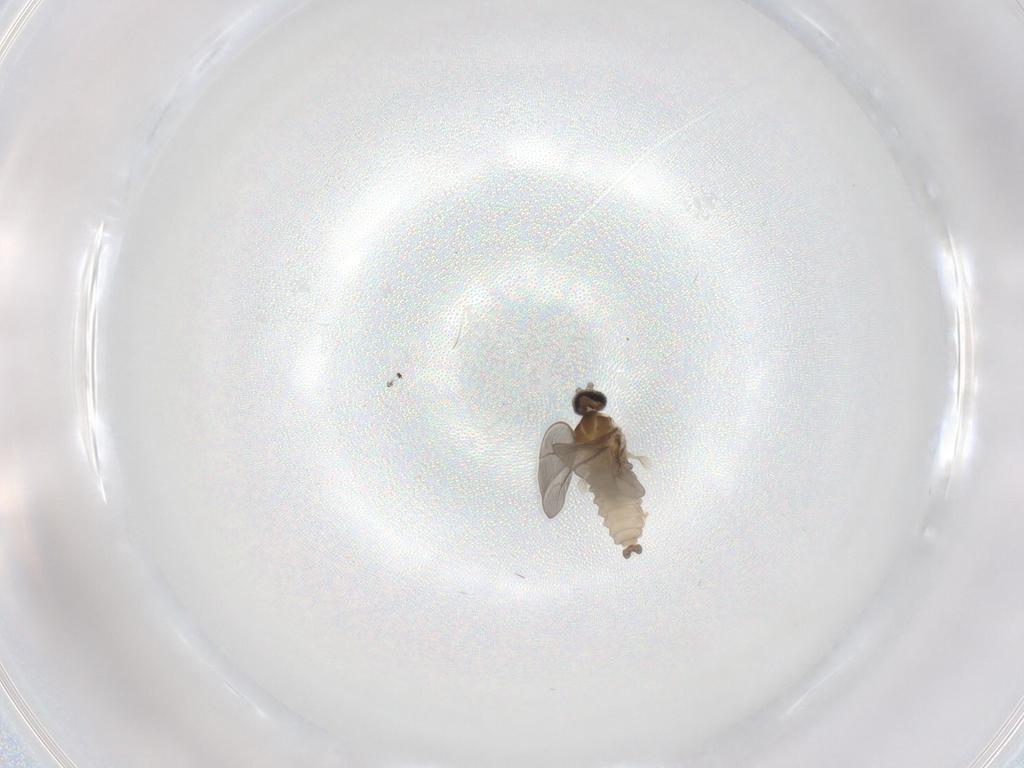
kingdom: Animalia
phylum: Arthropoda
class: Insecta
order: Diptera
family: Cecidomyiidae
